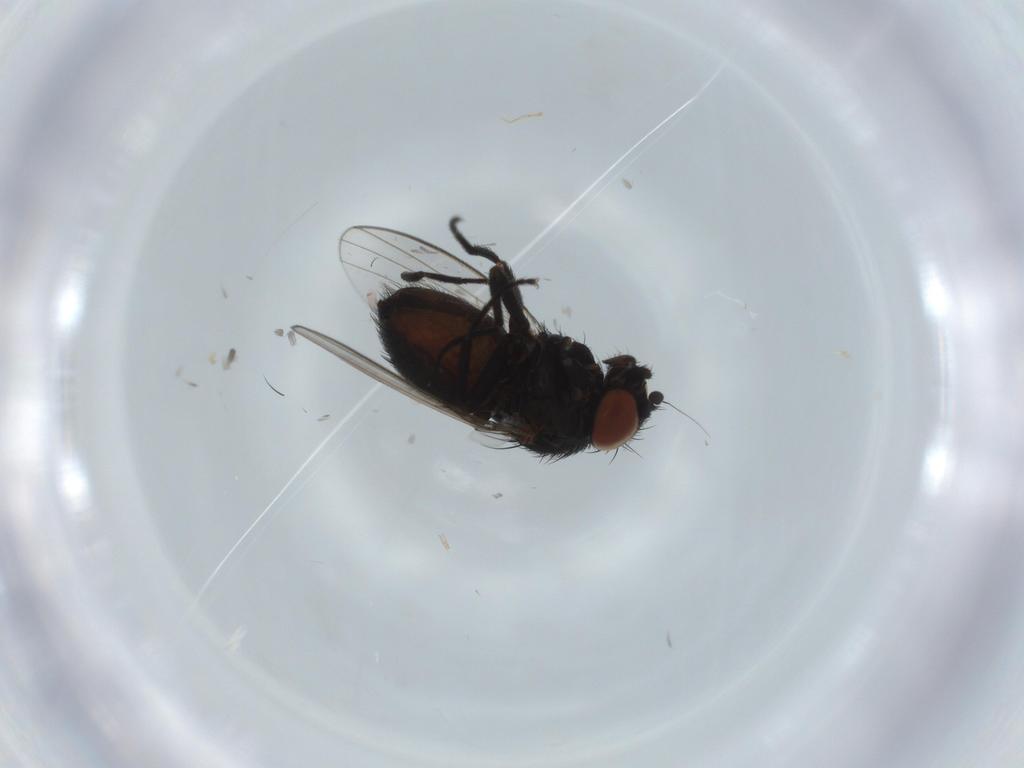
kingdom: Animalia
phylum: Arthropoda
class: Insecta
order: Diptera
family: Milichiidae
